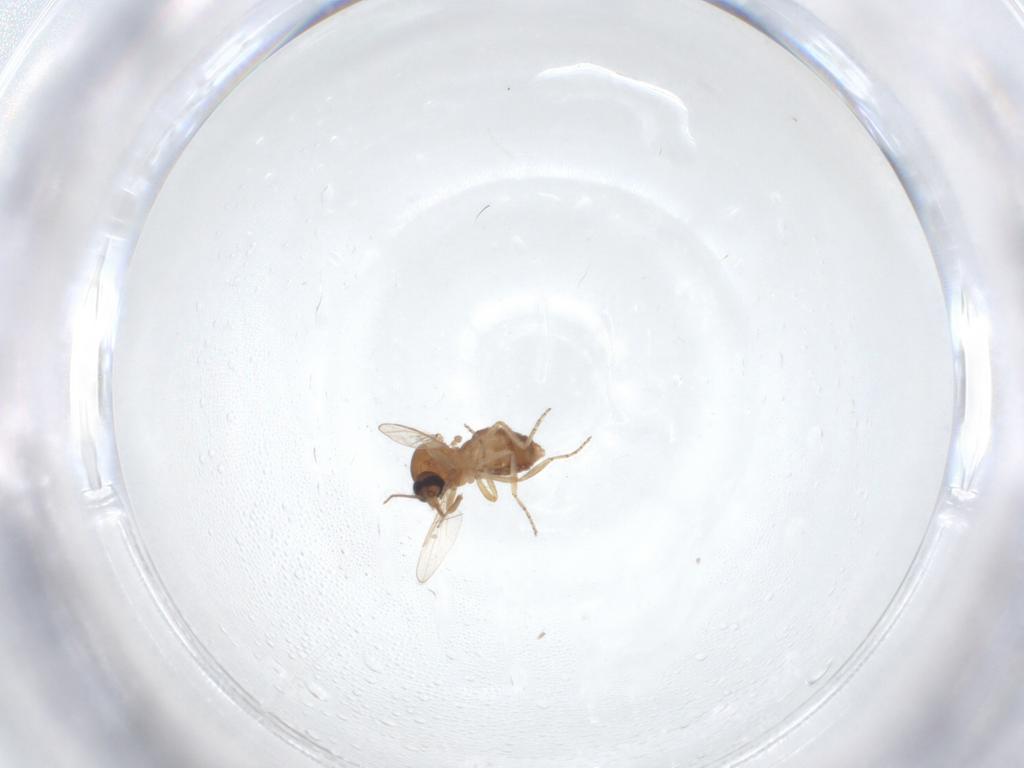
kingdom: Animalia
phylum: Arthropoda
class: Insecta
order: Diptera
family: Ceratopogonidae
